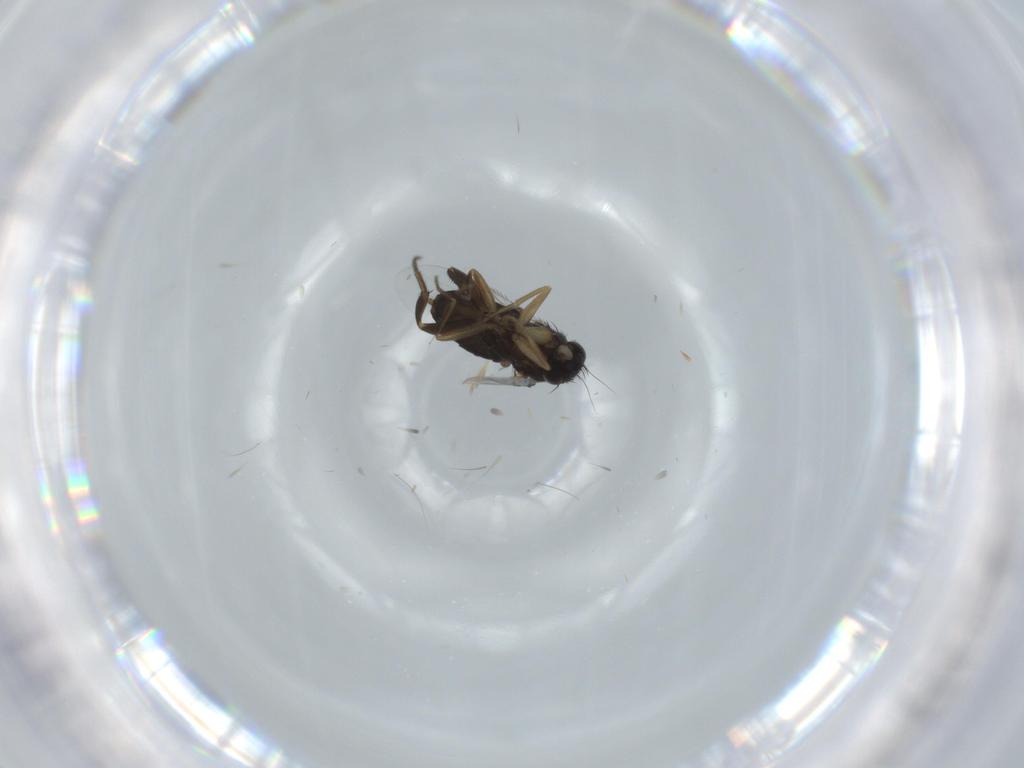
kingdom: Animalia
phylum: Arthropoda
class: Insecta
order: Diptera
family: Phoridae
